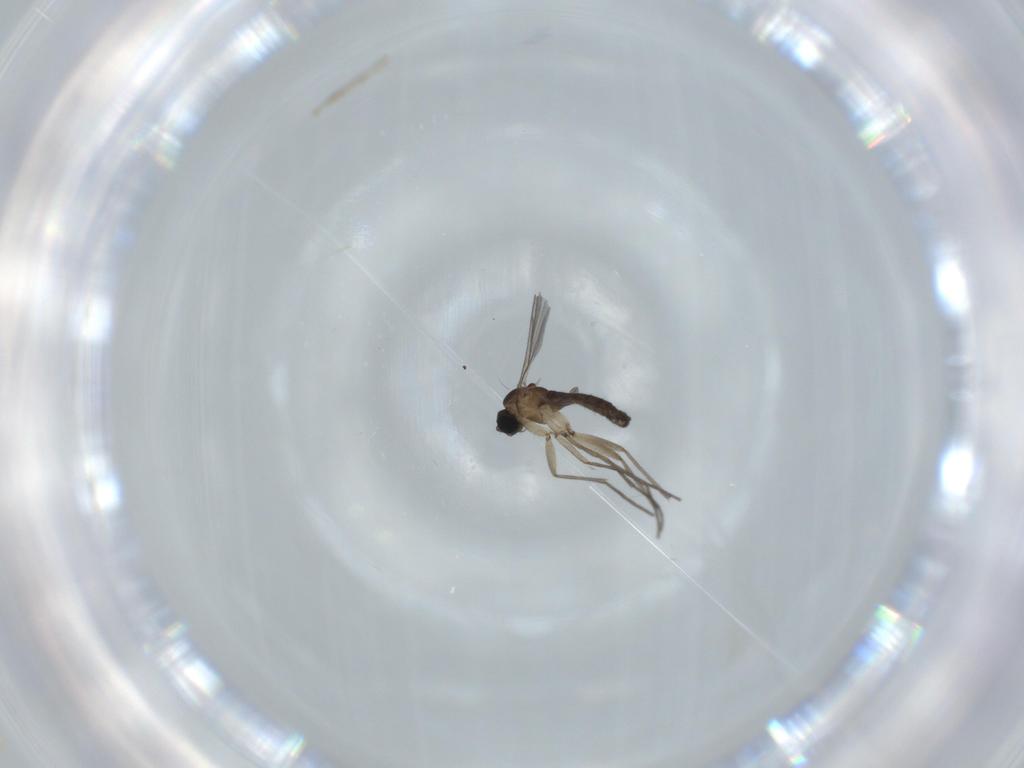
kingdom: Animalia
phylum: Arthropoda
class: Insecta
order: Diptera
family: Sciaridae
